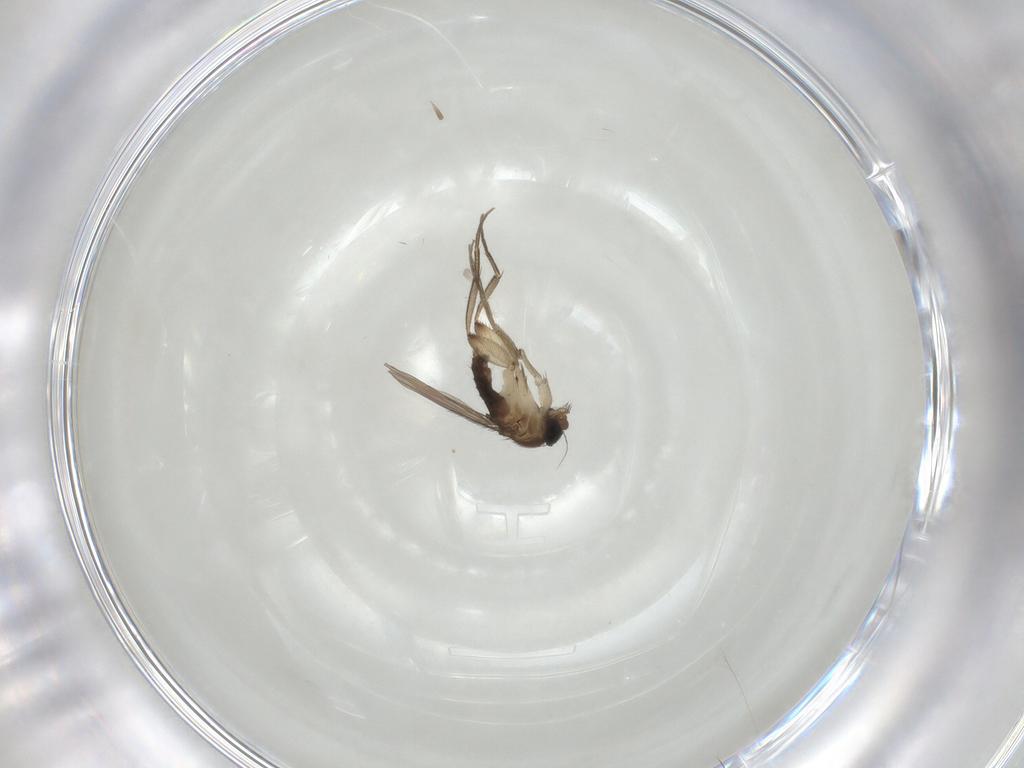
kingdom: Animalia
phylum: Arthropoda
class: Insecta
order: Diptera
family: Phoridae
